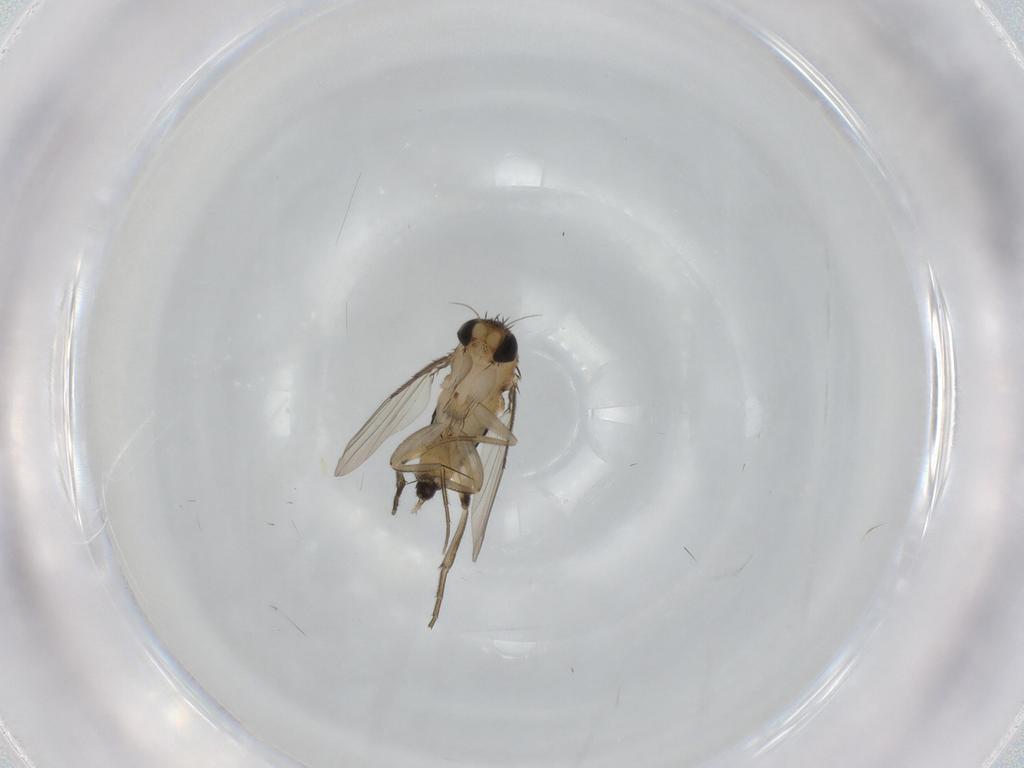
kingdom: Animalia
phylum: Arthropoda
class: Insecta
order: Diptera
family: Phoridae
